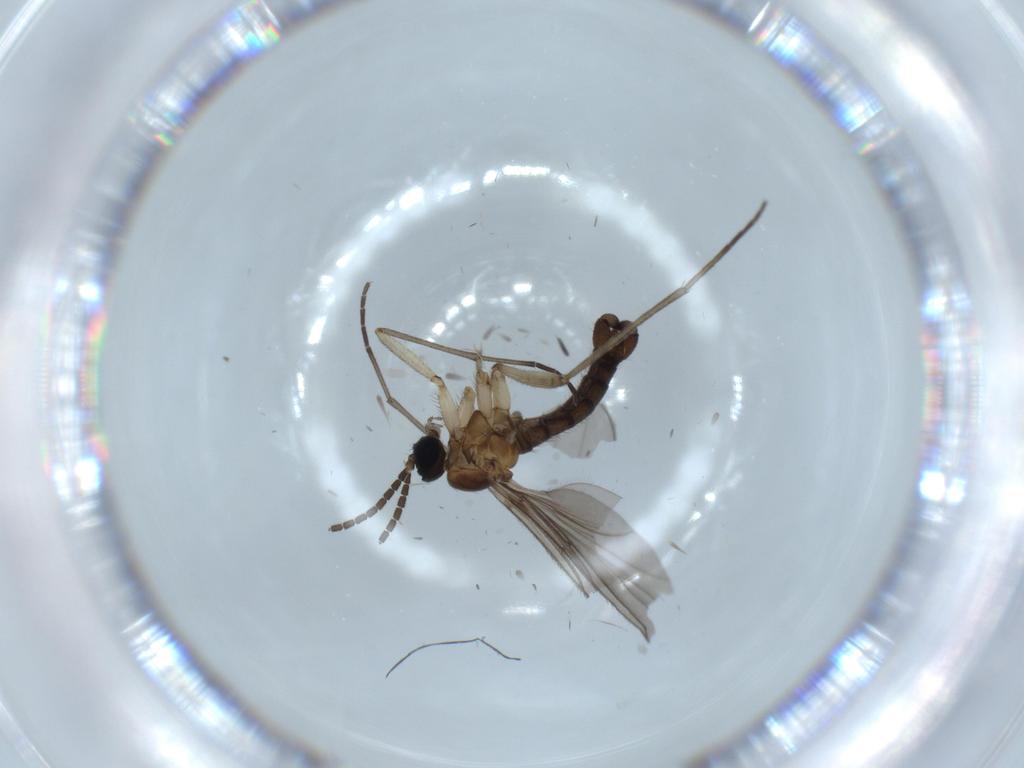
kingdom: Animalia
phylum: Arthropoda
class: Insecta
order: Diptera
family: Sciaridae
